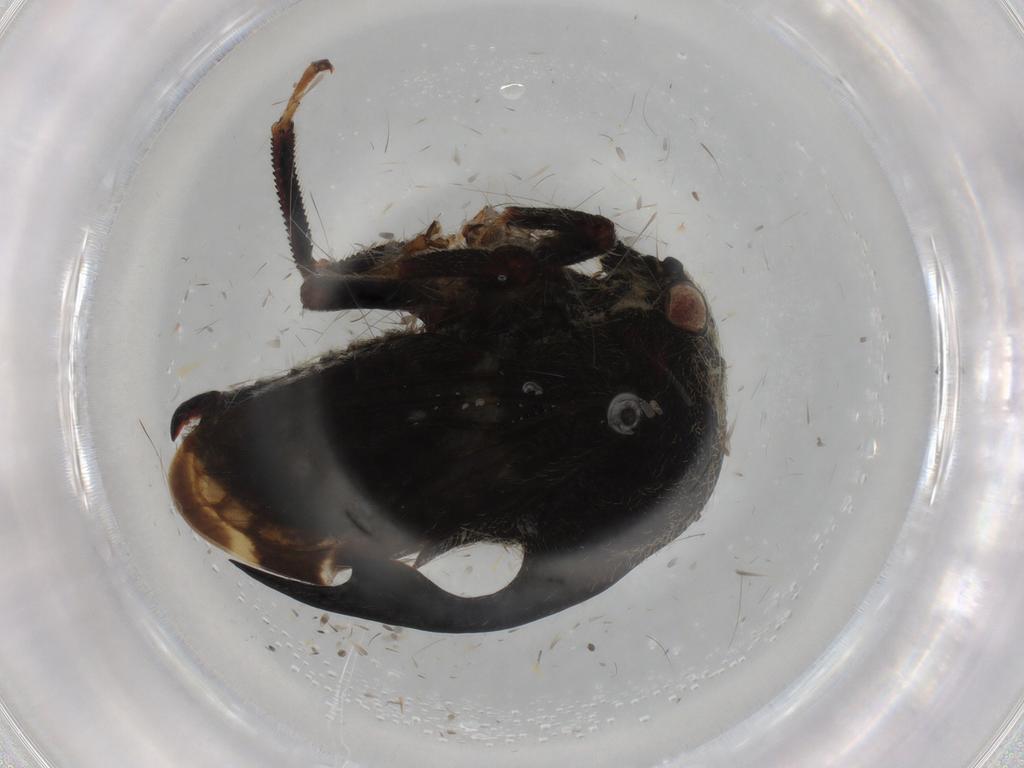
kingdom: Animalia
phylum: Arthropoda
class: Insecta
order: Hemiptera
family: Membracidae
